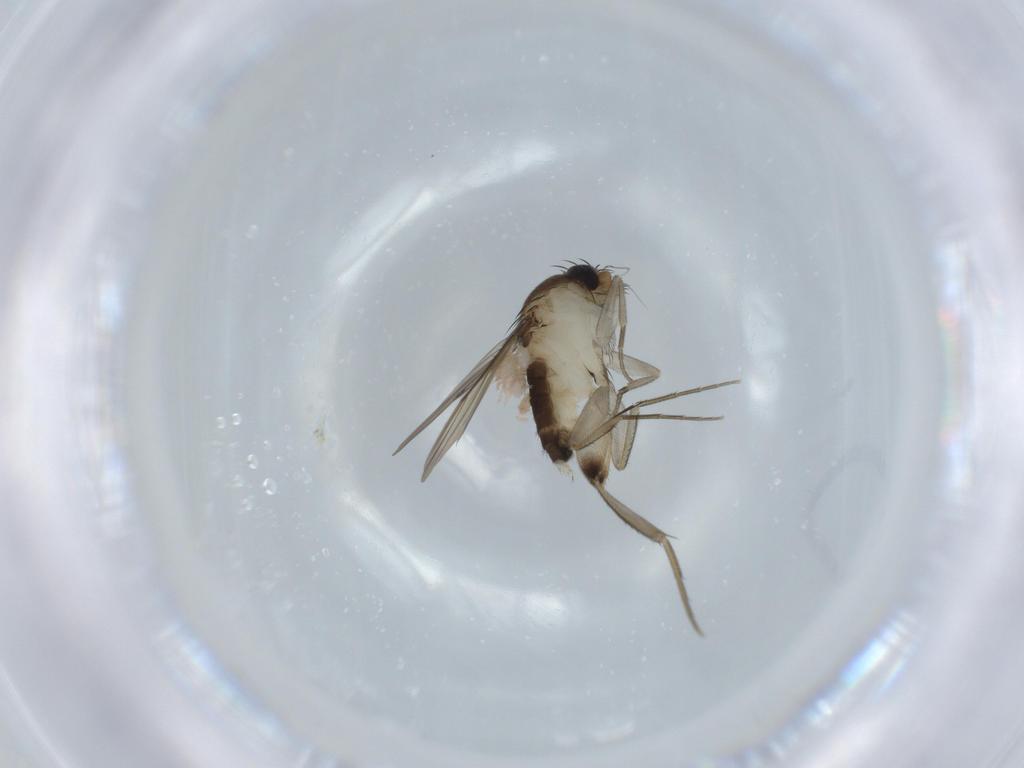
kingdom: Animalia
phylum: Arthropoda
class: Insecta
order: Diptera
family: Phoridae
